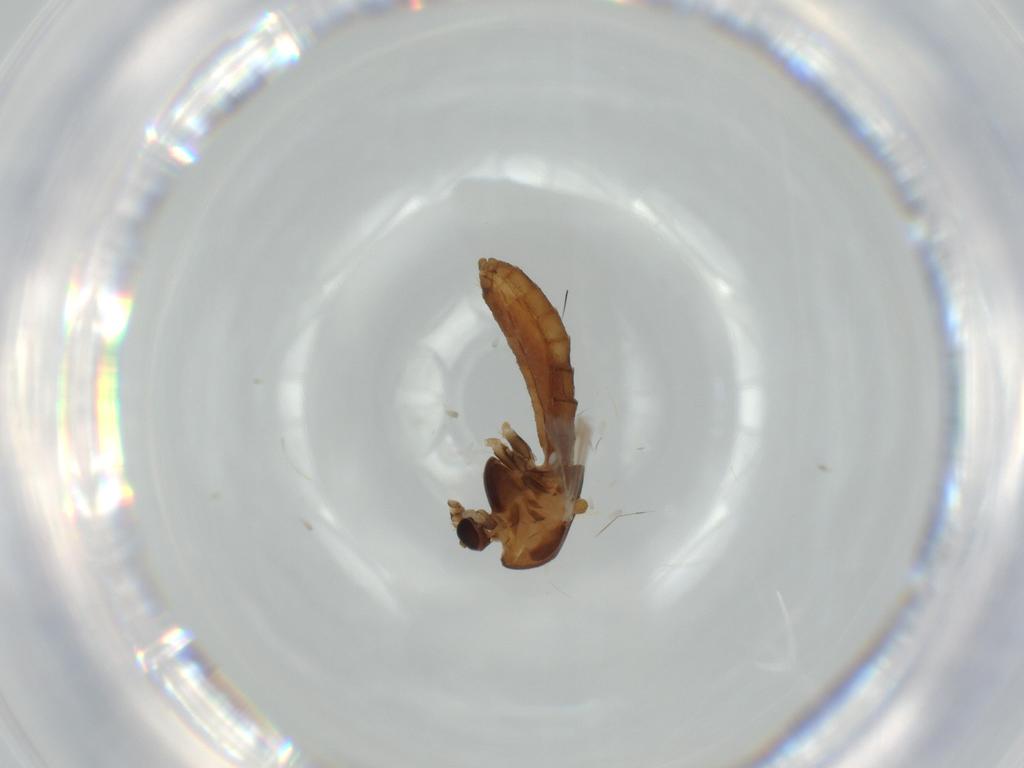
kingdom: Animalia
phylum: Arthropoda
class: Insecta
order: Diptera
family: Chironomidae
